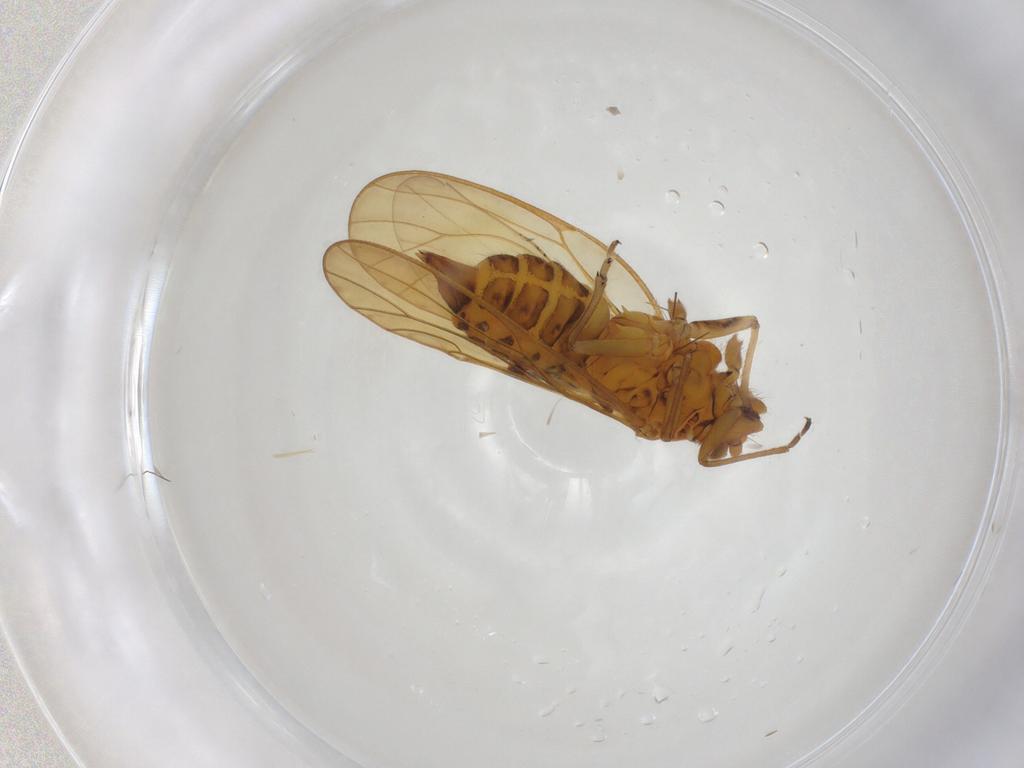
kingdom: Animalia
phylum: Arthropoda
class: Insecta
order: Hemiptera
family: Psyllidae
